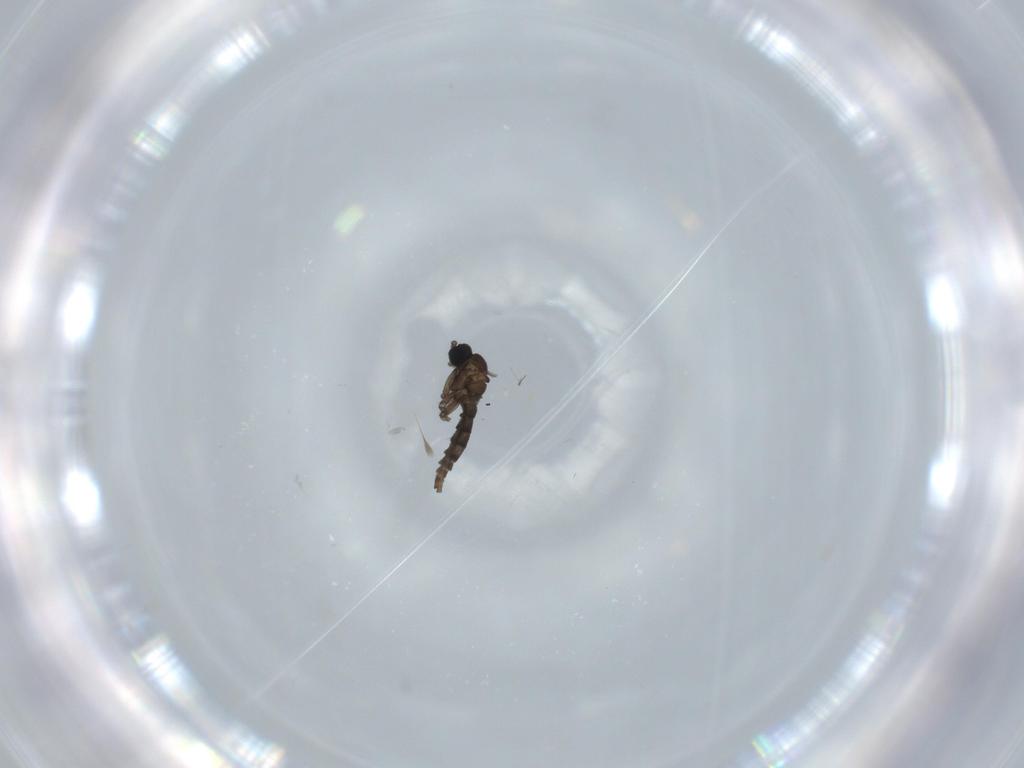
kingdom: Animalia
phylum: Arthropoda
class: Insecta
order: Diptera
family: Sciaridae
